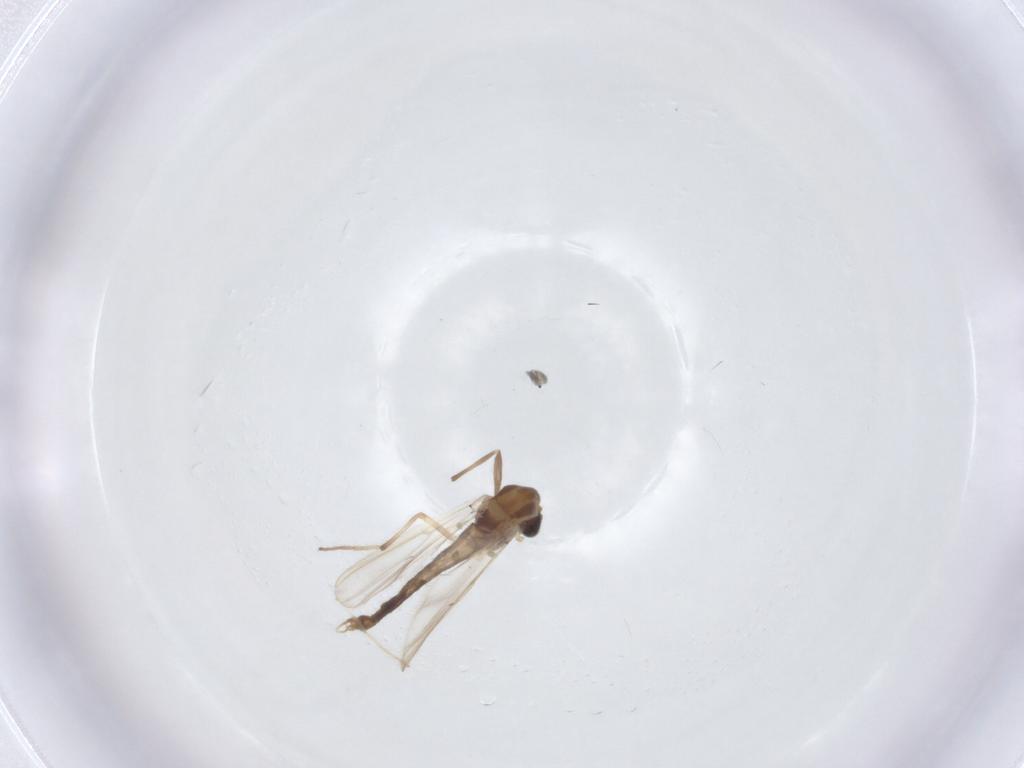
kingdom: Animalia
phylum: Arthropoda
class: Insecta
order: Diptera
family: Chironomidae
